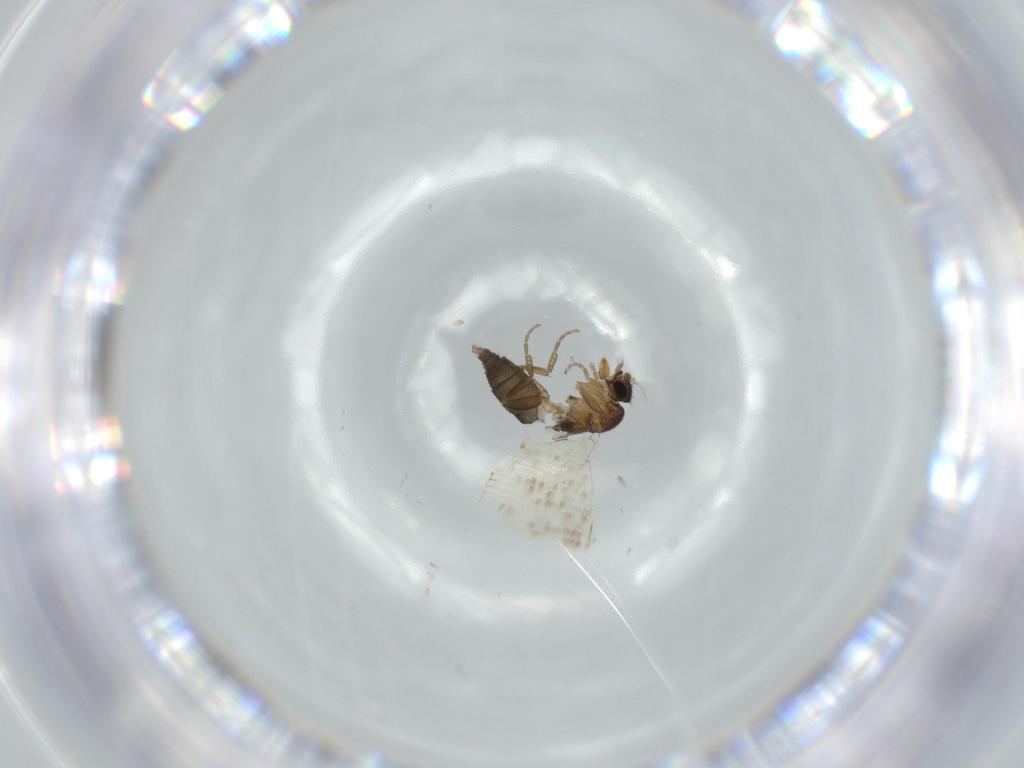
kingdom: Animalia
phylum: Arthropoda
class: Insecta
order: Diptera
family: Phoridae
